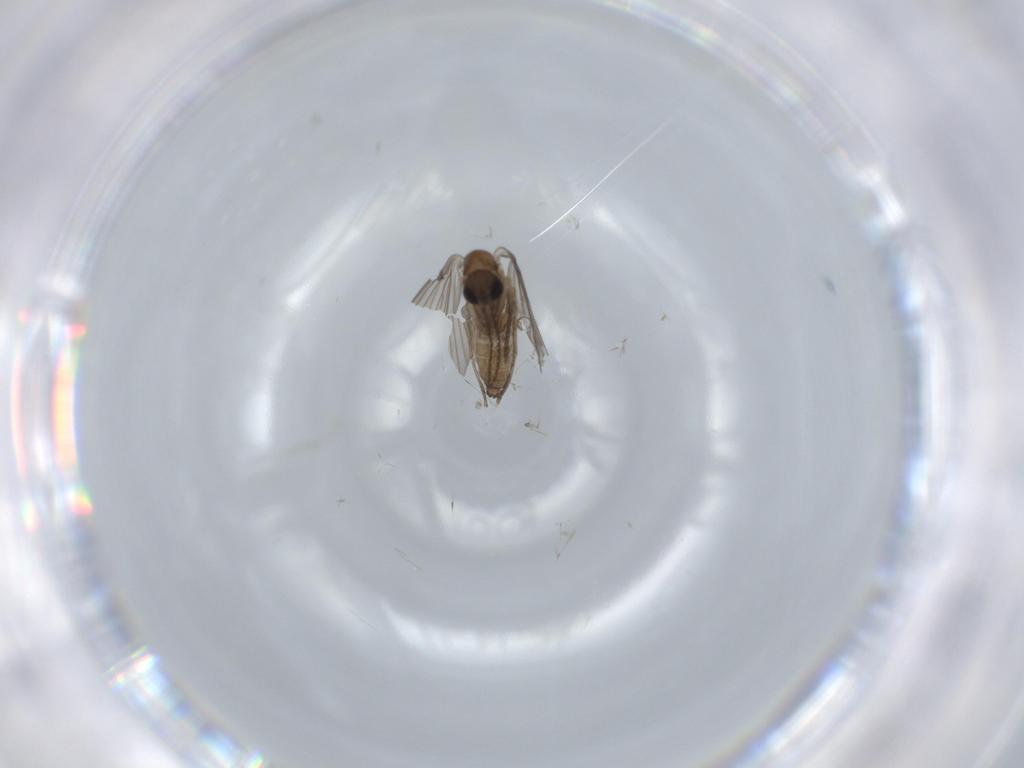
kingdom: Animalia
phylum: Arthropoda
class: Insecta
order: Diptera
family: Psychodidae
